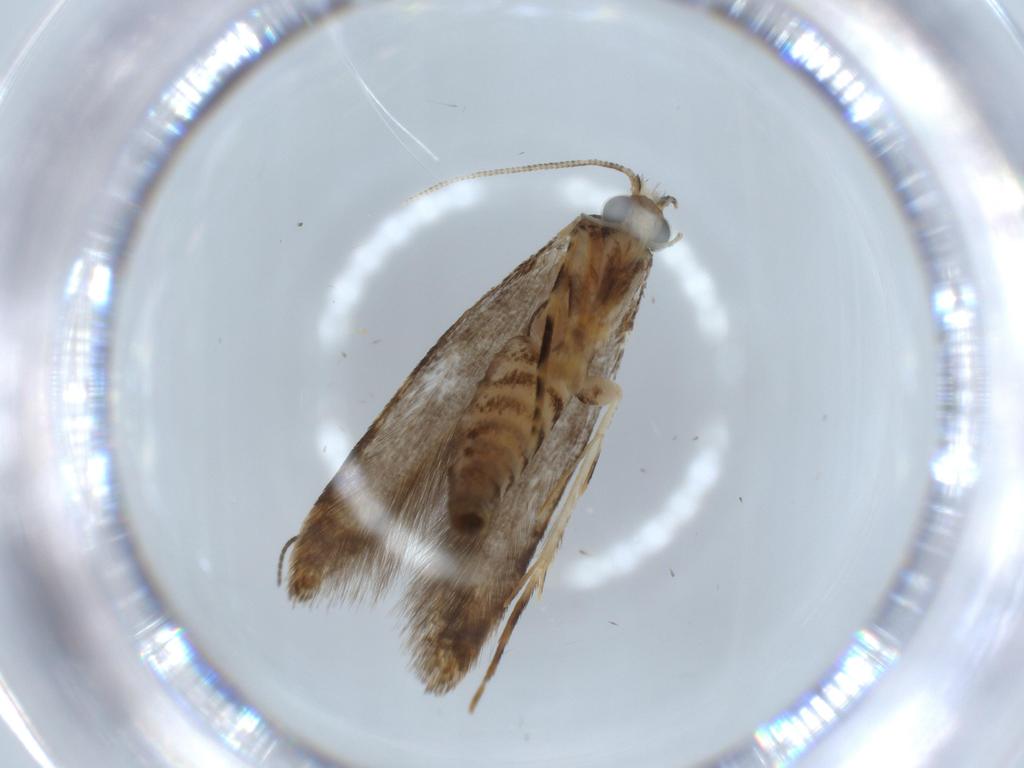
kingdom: Animalia
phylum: Arthropoda
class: Insecta
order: Lepidoptera
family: Tineidae
